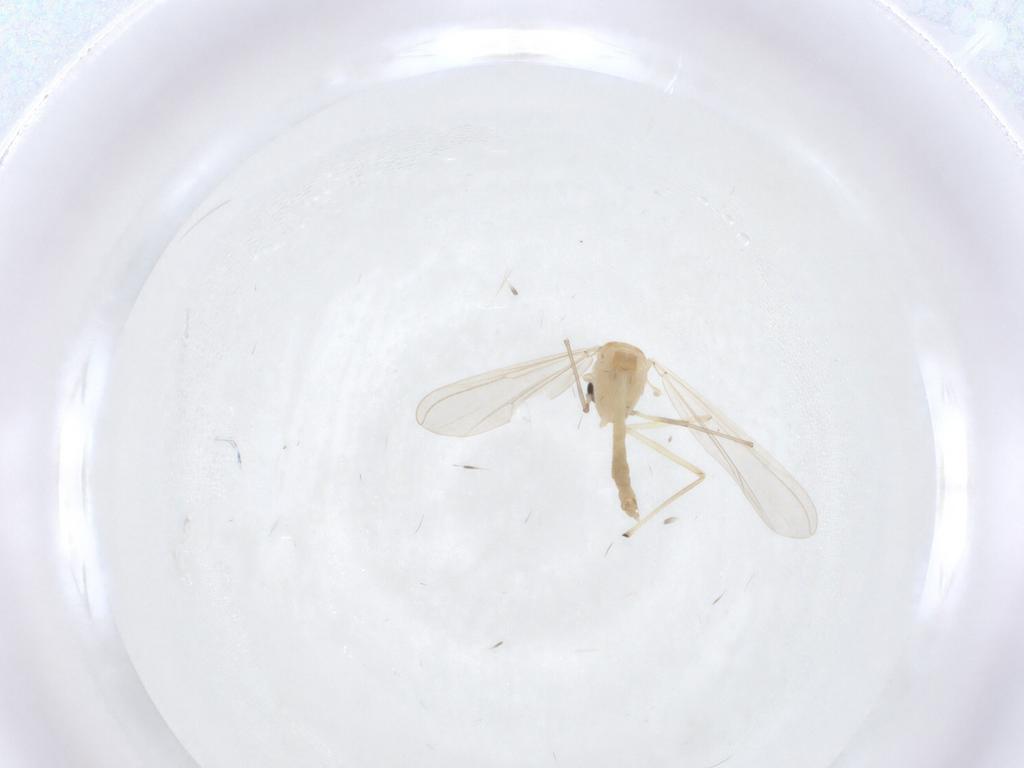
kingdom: Animalia
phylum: Arthropoda
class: Insecta
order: Diptera
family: Chironomidae
